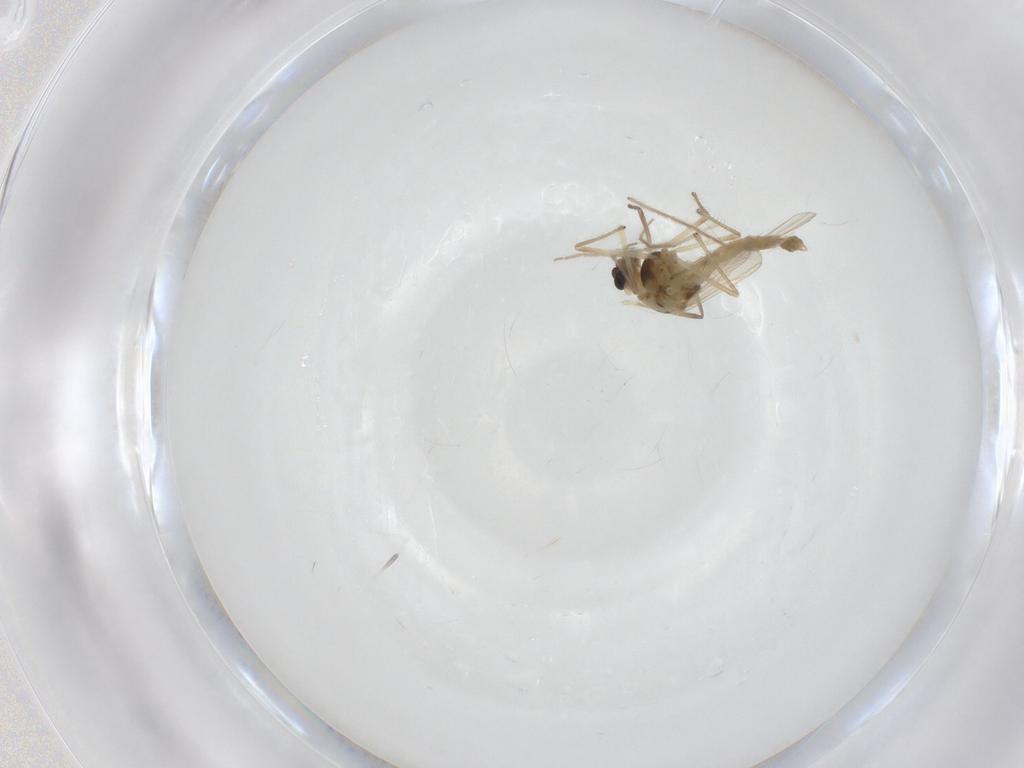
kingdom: Animalia
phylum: Arthropoda
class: Insecta
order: Diptera
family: Chironomidae
